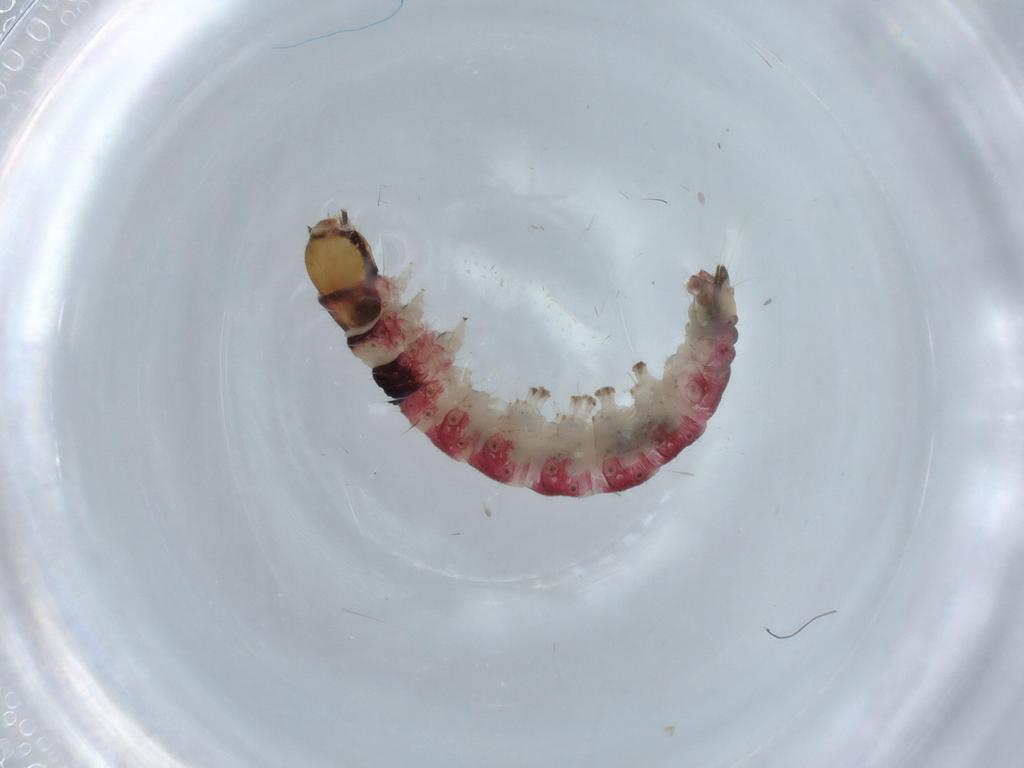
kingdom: Animalia
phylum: Arthropoda
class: Insecta
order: Lepidoptera
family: Gelechiidae
